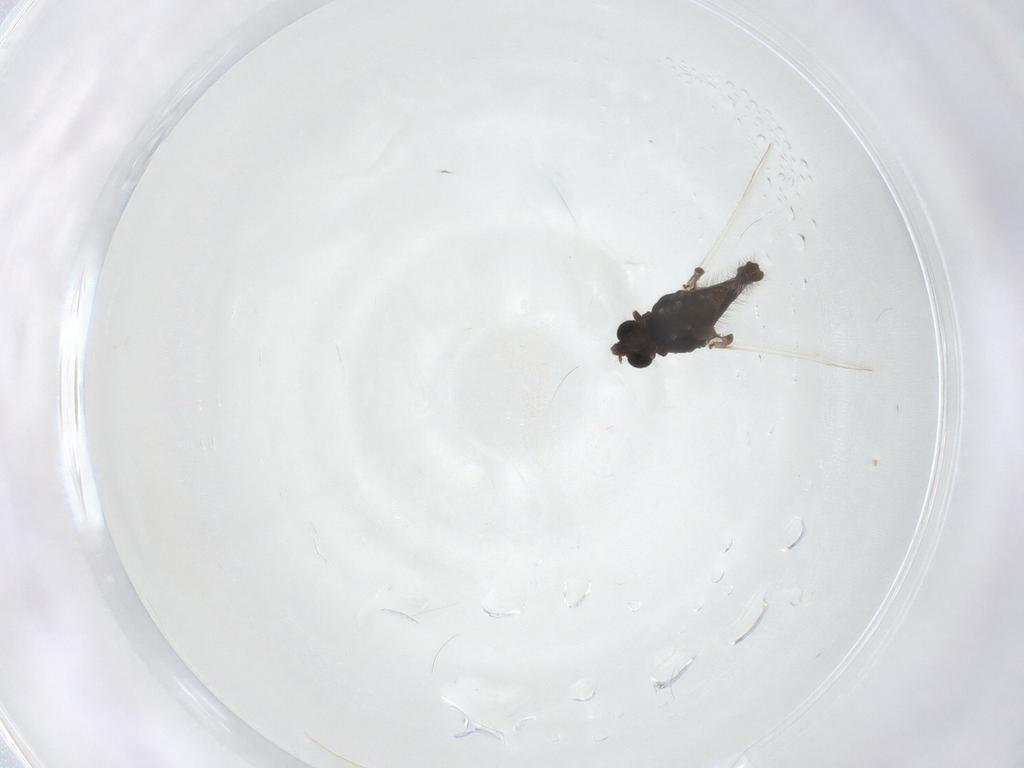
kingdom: Animalia
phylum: Arthropoda
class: Insecta
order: Diptera
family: Chironomidae
